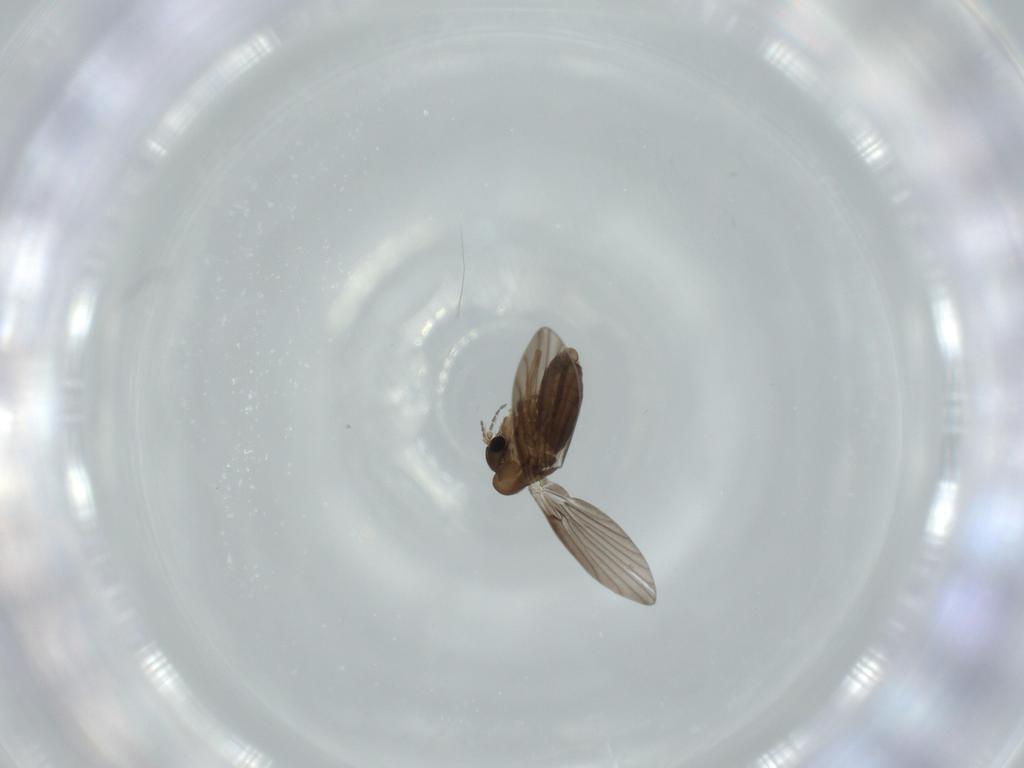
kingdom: Animalia
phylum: Arthropoda
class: Insecta
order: Diptera
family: Psychodidae
